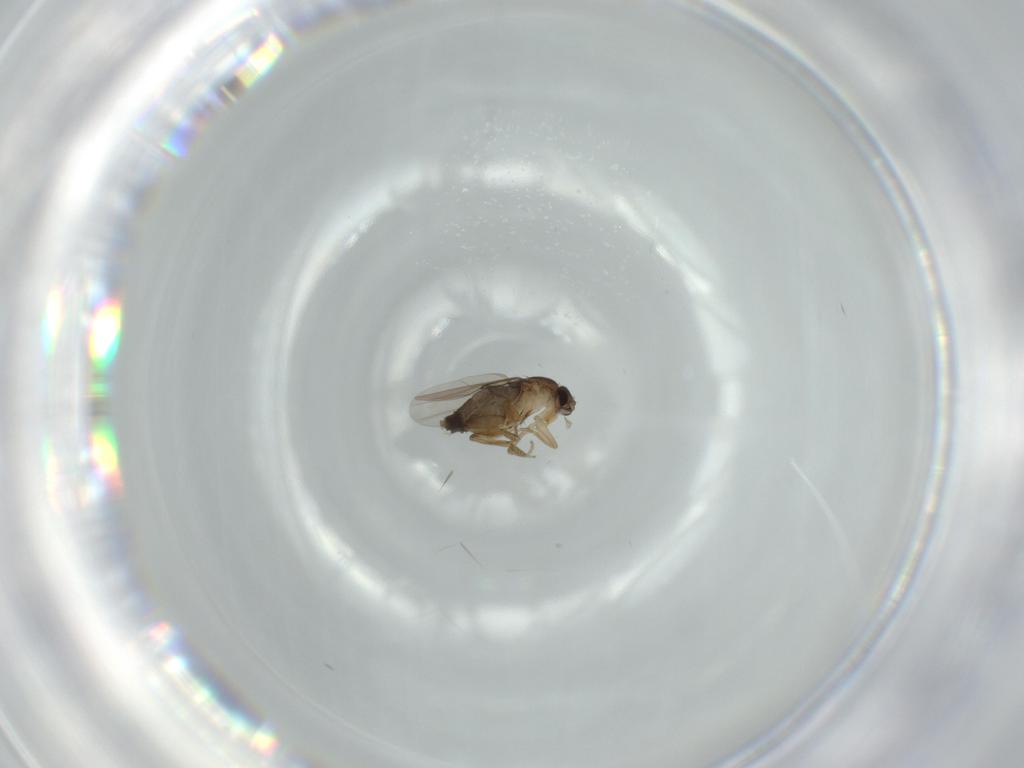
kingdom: Animalia
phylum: Arthropoda
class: Insecta
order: Diptera
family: Phoridae
